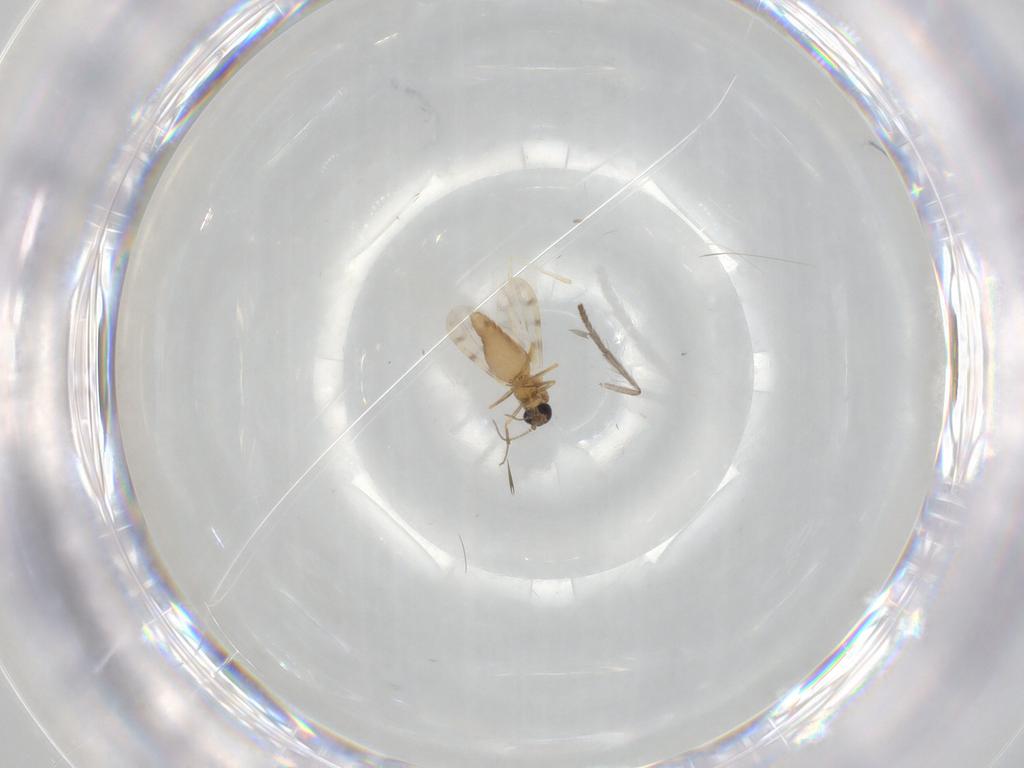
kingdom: Animalia
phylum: Arthropoda
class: Insecta
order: Diptera
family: Ceratopogonidae
